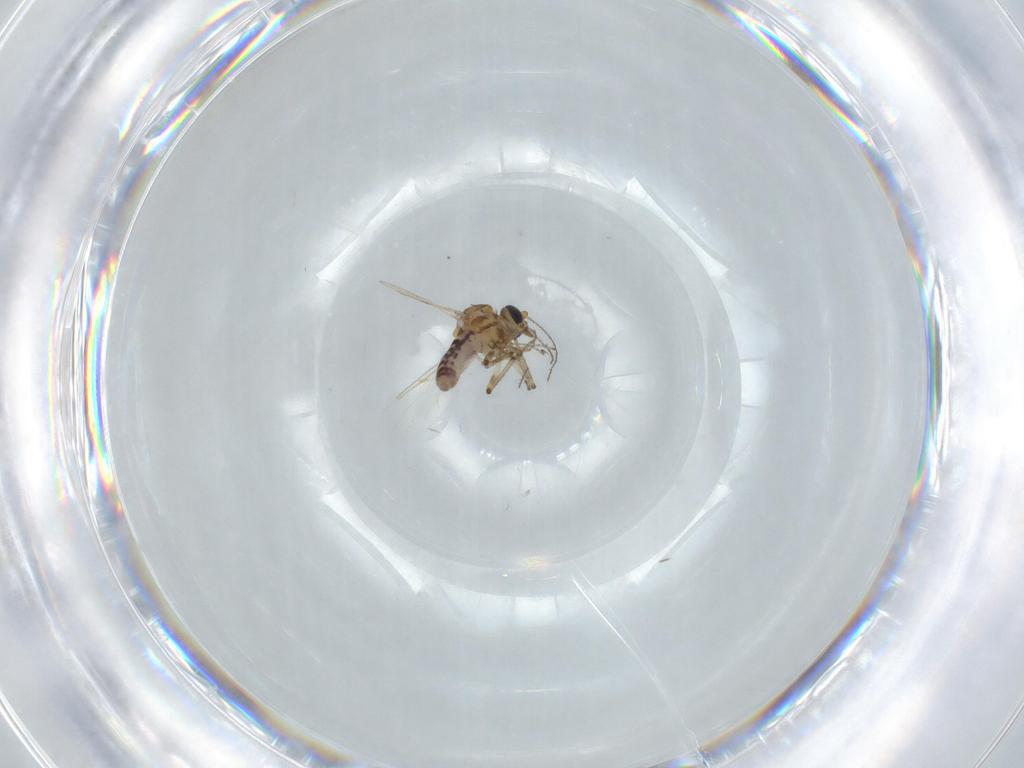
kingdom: Animalia
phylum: Arthropoda
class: Insecta
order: Diptera
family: Ceratopogonidae
